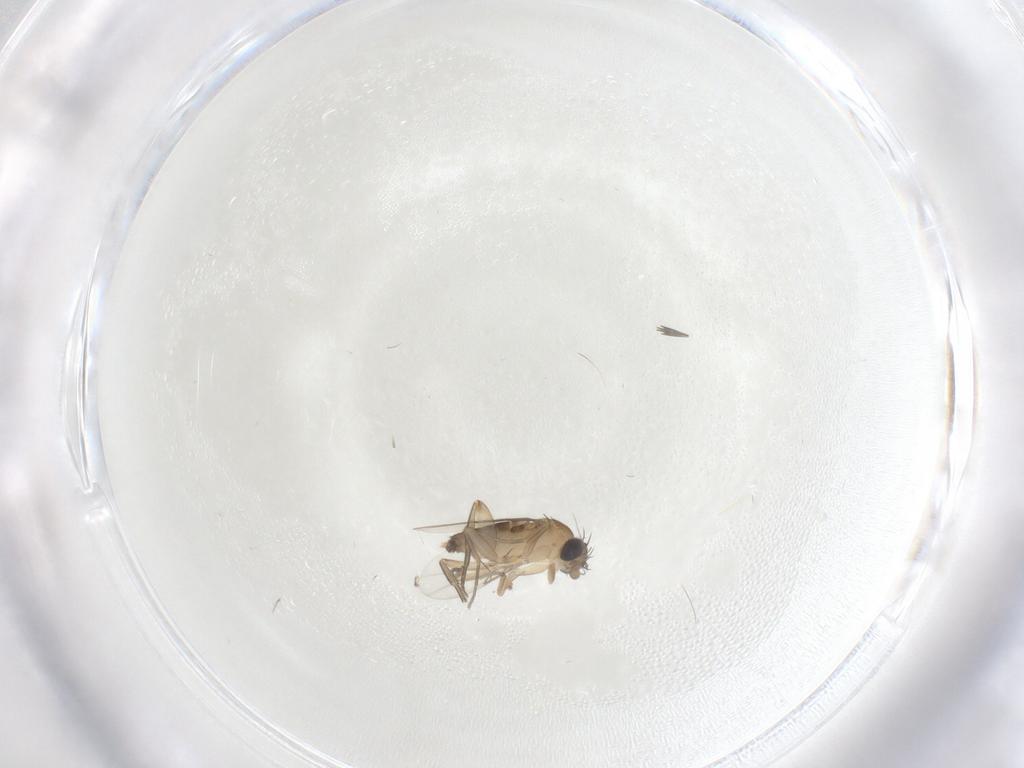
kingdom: Animalia
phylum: Arthropoda
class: Insecta
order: Diptera
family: Phoridae
